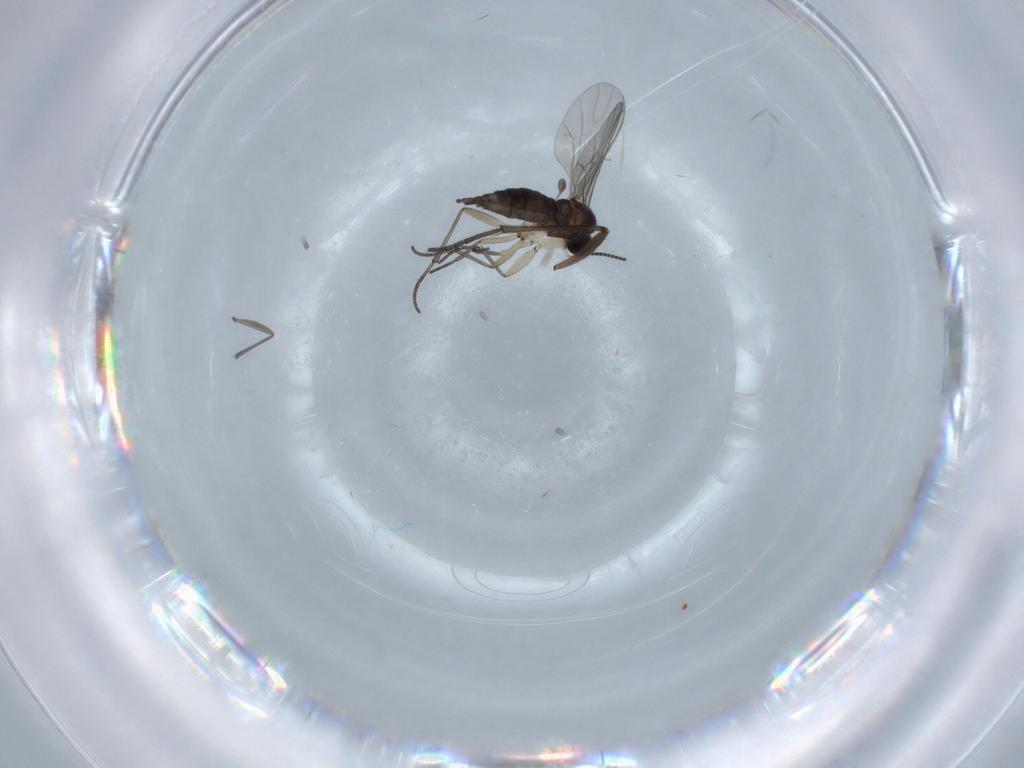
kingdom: Animalia
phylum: Arthropoda
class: Insecta
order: Diptera
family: Sciaridae
